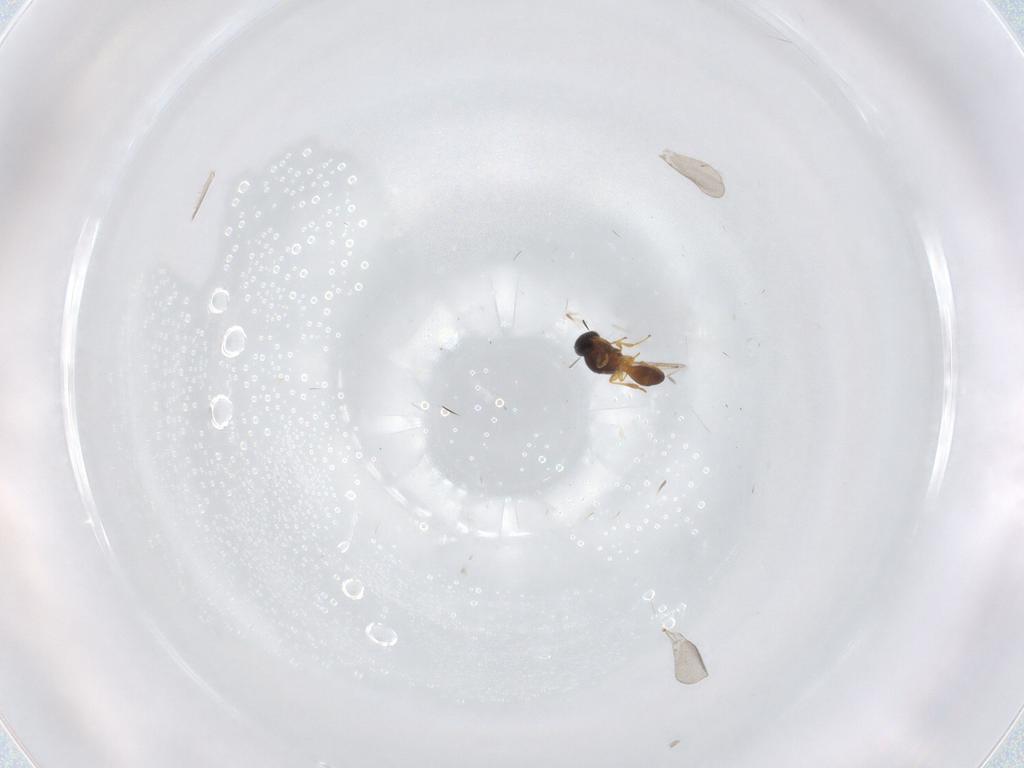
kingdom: Animalia
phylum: Arthropoda
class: Insecta
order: Hymenoptera
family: Platygastridae
